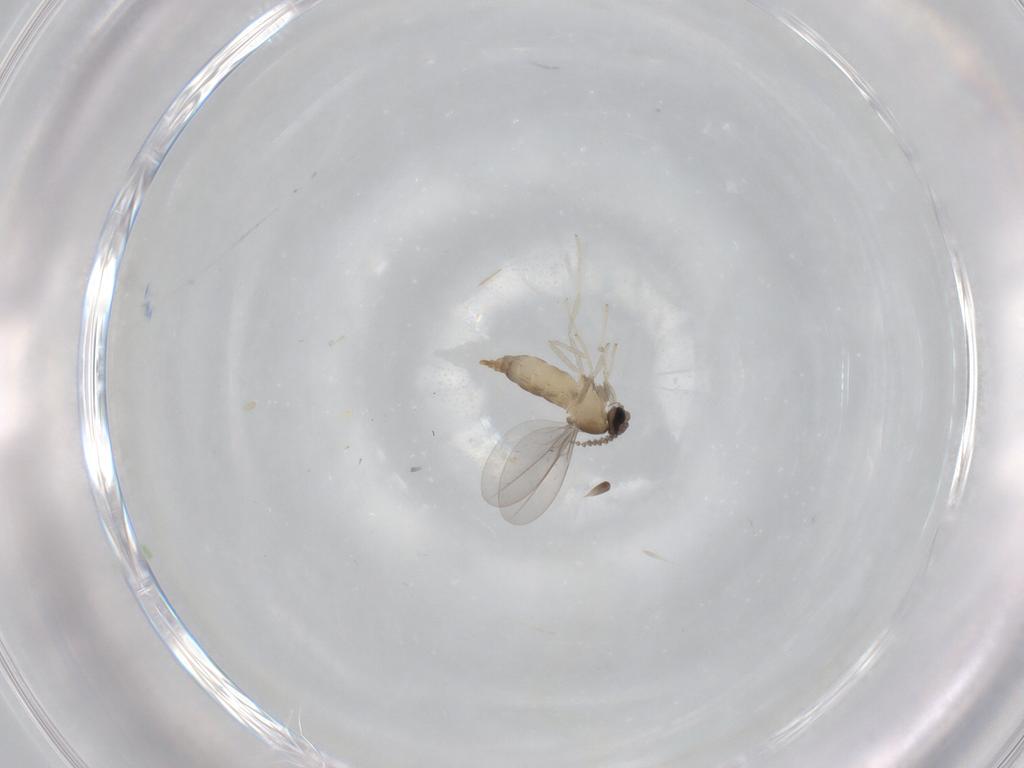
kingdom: Animalia
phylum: Arthropoda
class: Insecta
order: Diptera
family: Cecidomyiidae
